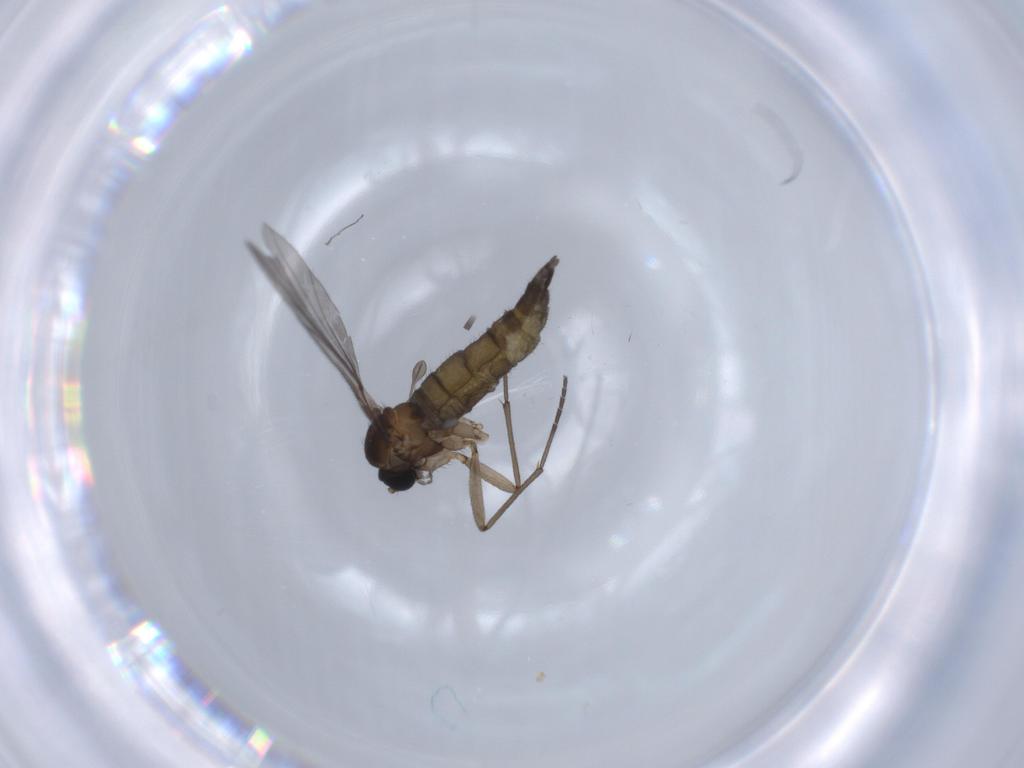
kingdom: Animalia
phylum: Arthropoda
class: Insecta
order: Diptera
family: Sciaridae
